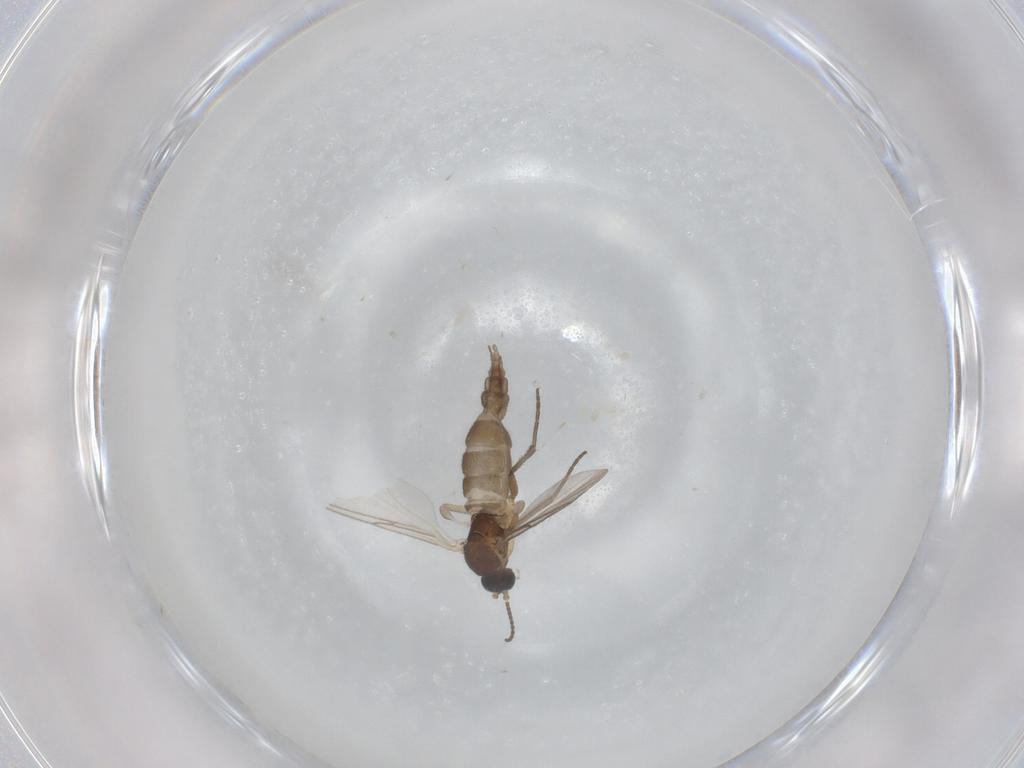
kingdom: Animalia
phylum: Arthropoda
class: Insecta
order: Diptera
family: Sciaridae
